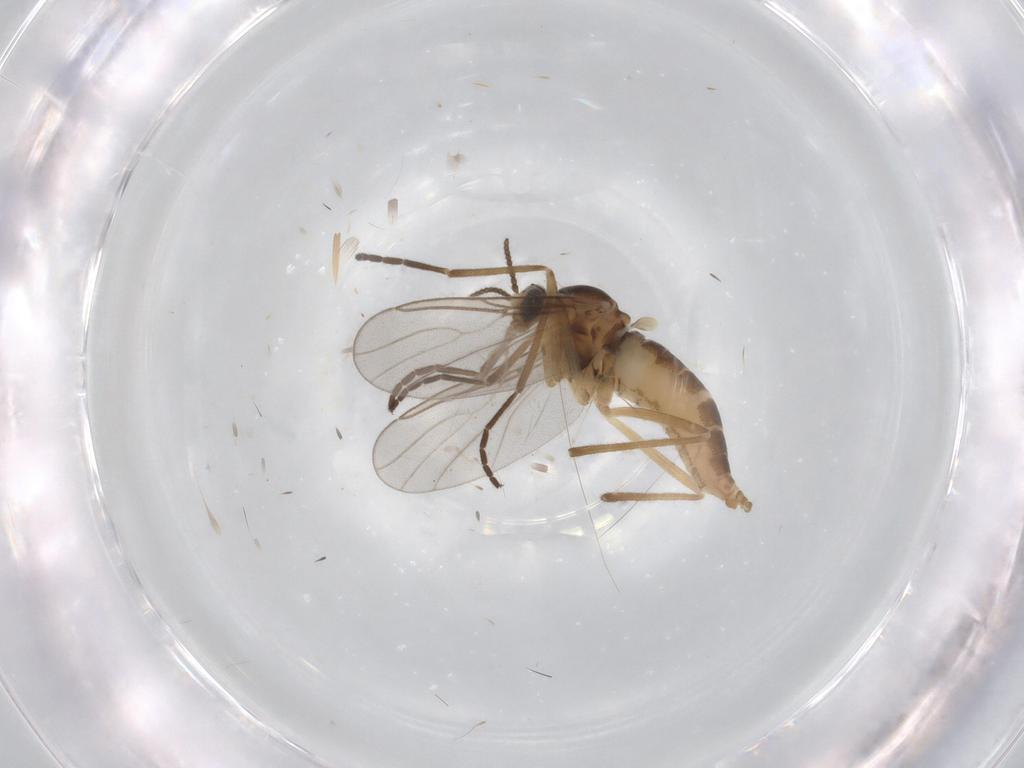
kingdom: Animalia
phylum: Arthropoda
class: Insecta
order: Diptera
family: Cecidomyiidae
